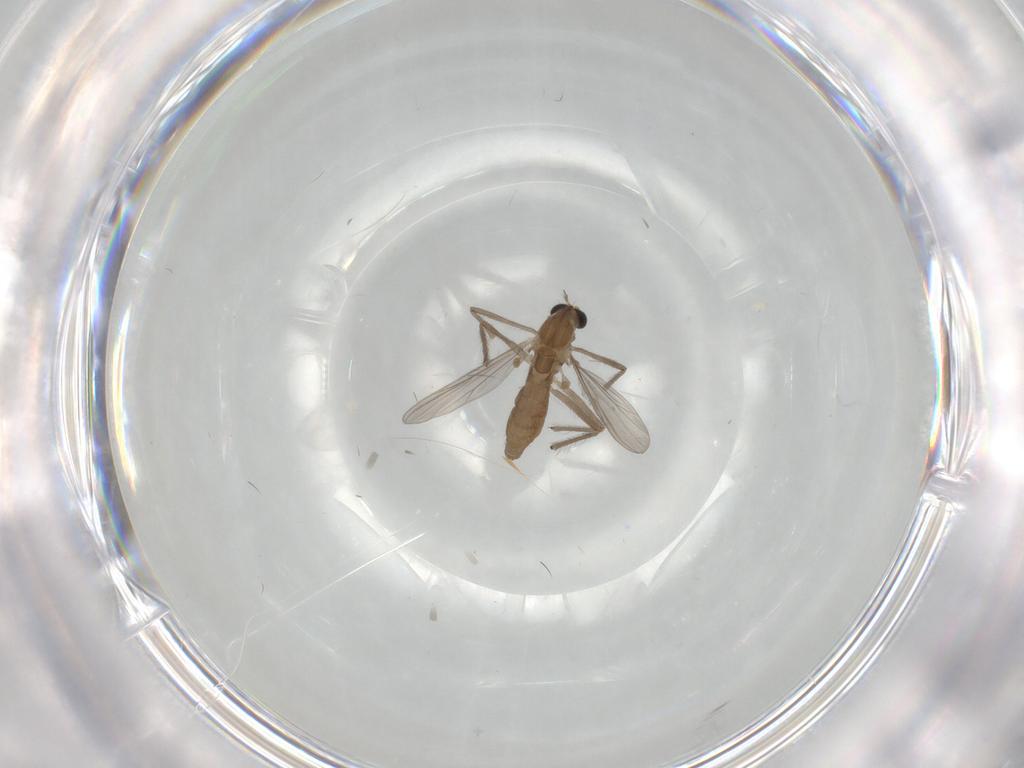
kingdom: Animalia
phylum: Arthropoda
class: Insecta
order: Diptera
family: Chironomidae
